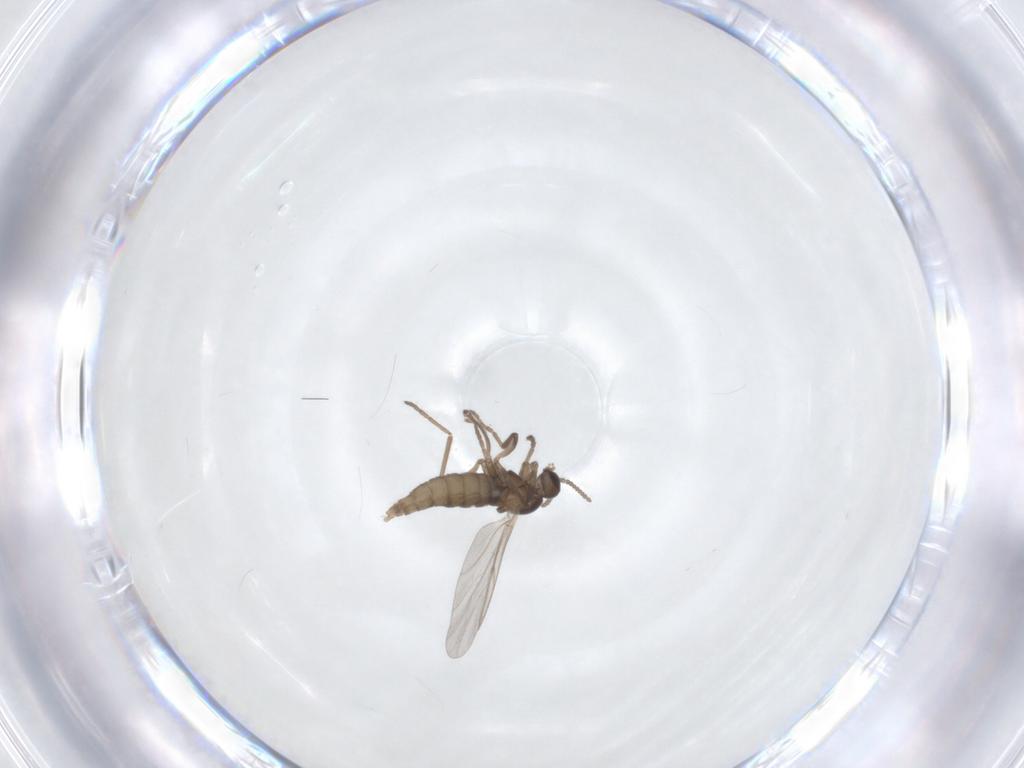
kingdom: Animalia
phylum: Arthropoda
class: Insecta
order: Diptera
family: Cecidomyiidae
